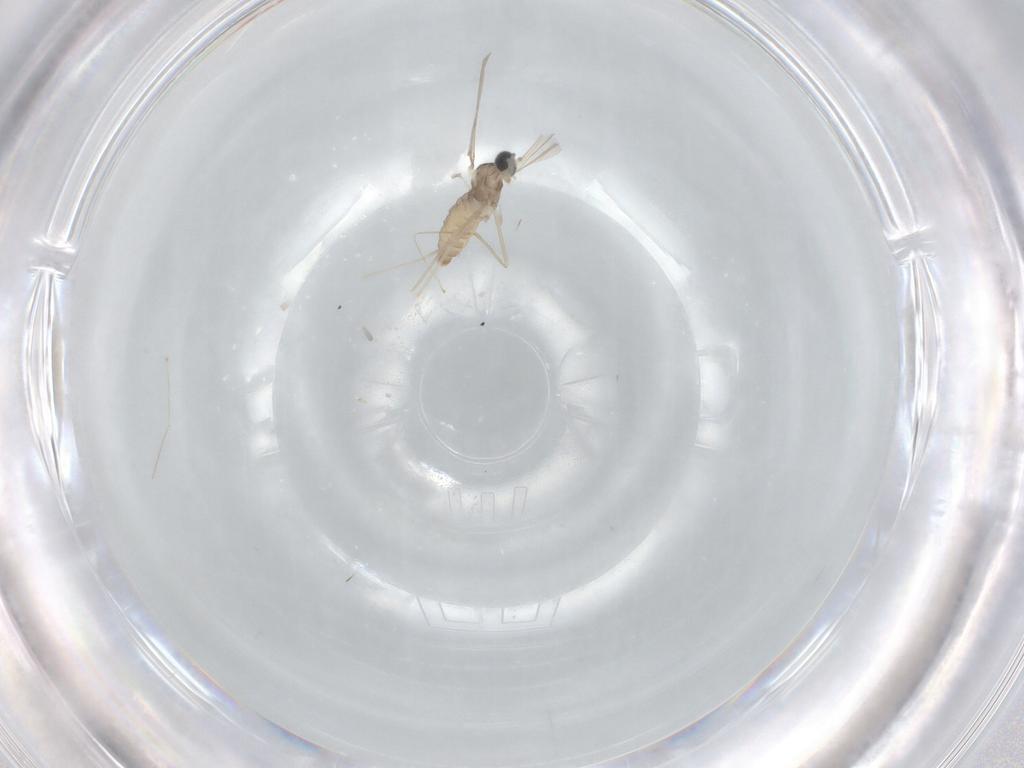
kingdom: Animalia
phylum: Arthropoda
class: Insecta
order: Diptera
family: Cecidomyiidae
